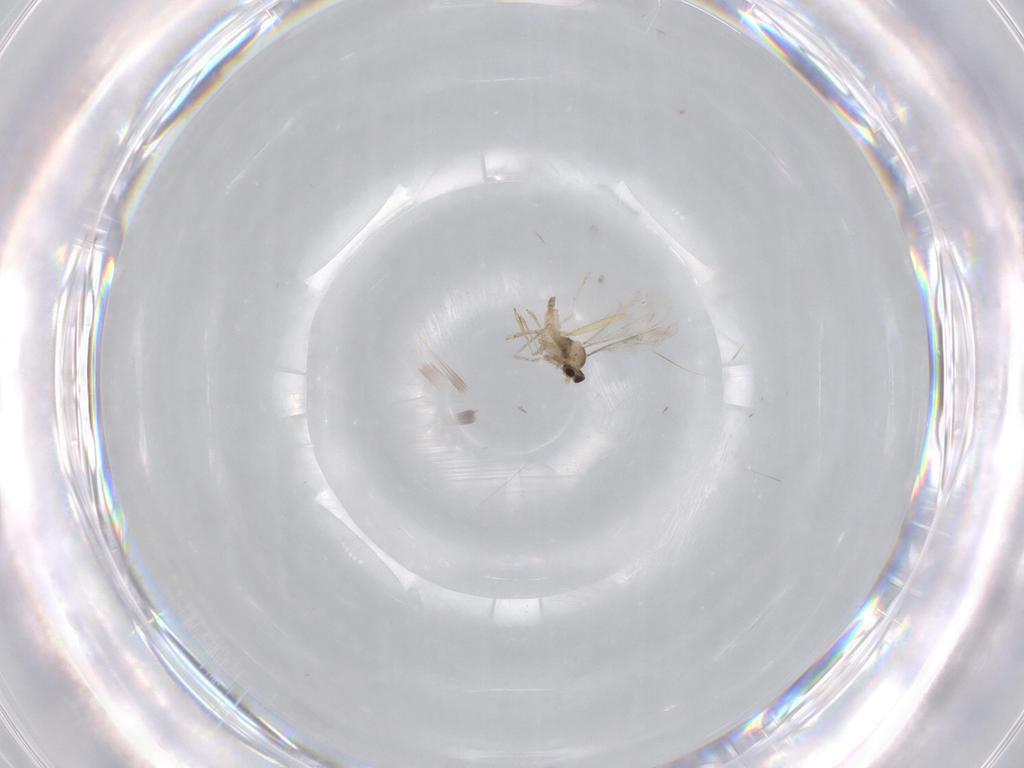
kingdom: Animalia
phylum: Arthropoda
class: Insecta
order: Diptera
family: Cecidomyiidae
